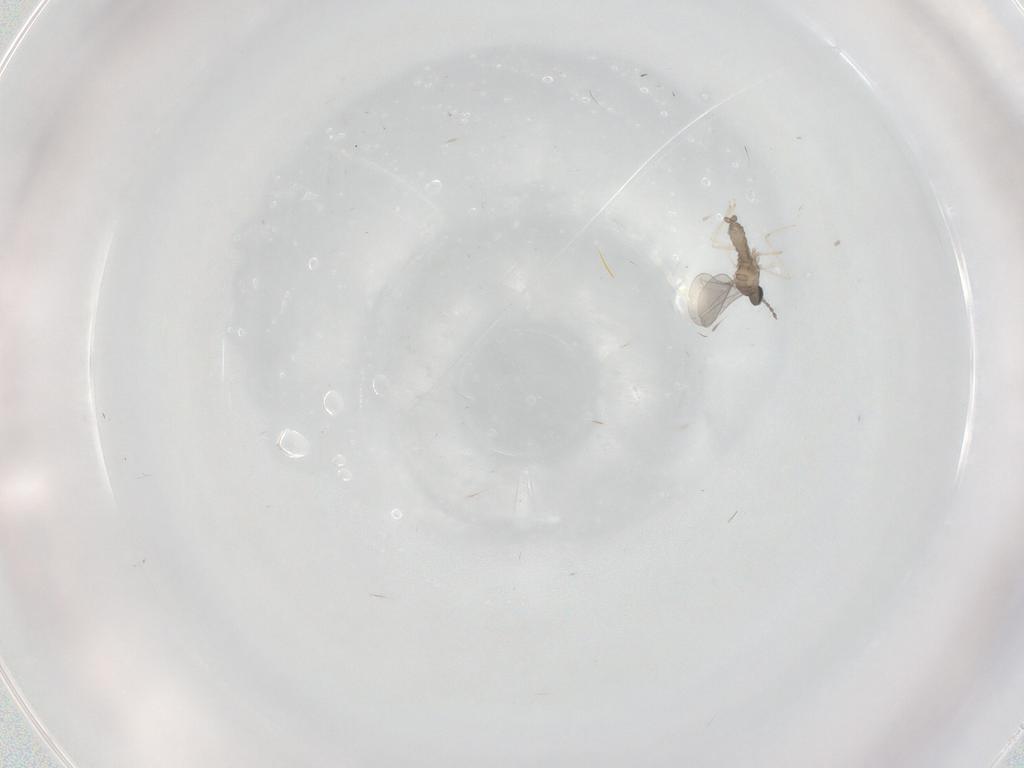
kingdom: Animalia
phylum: Arthropoda
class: Insecta
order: Diptera
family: Cecidomyiidae
